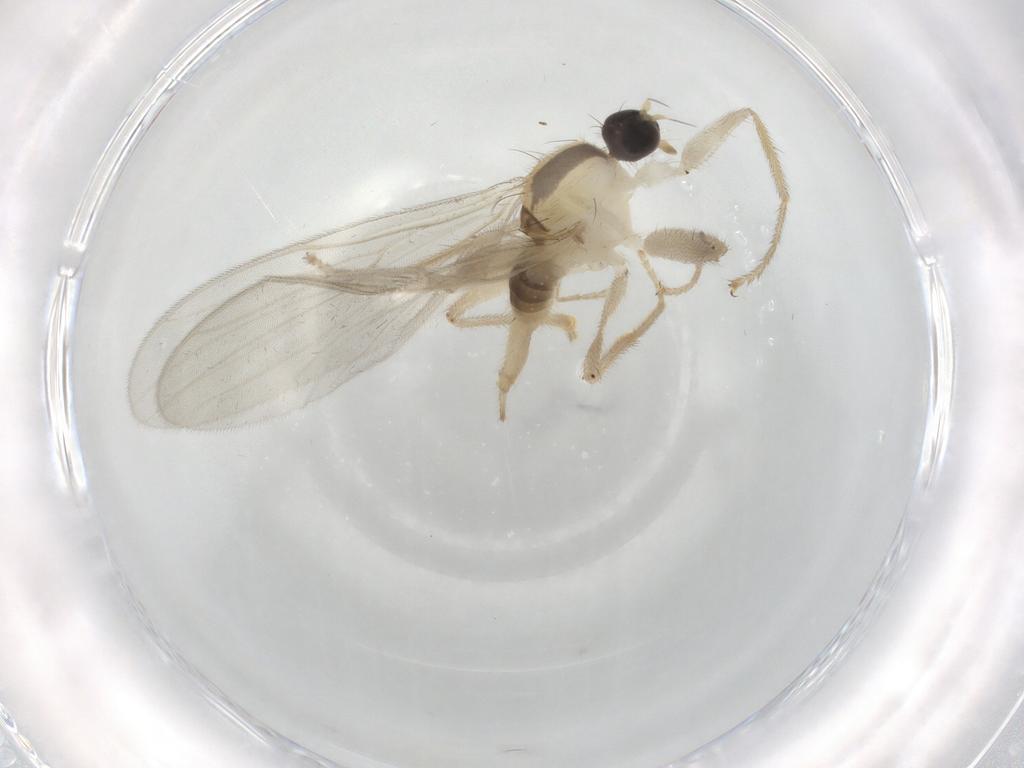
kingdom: Animalia
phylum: Arthropoda
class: Insecta
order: Diptera
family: Hybotidae
